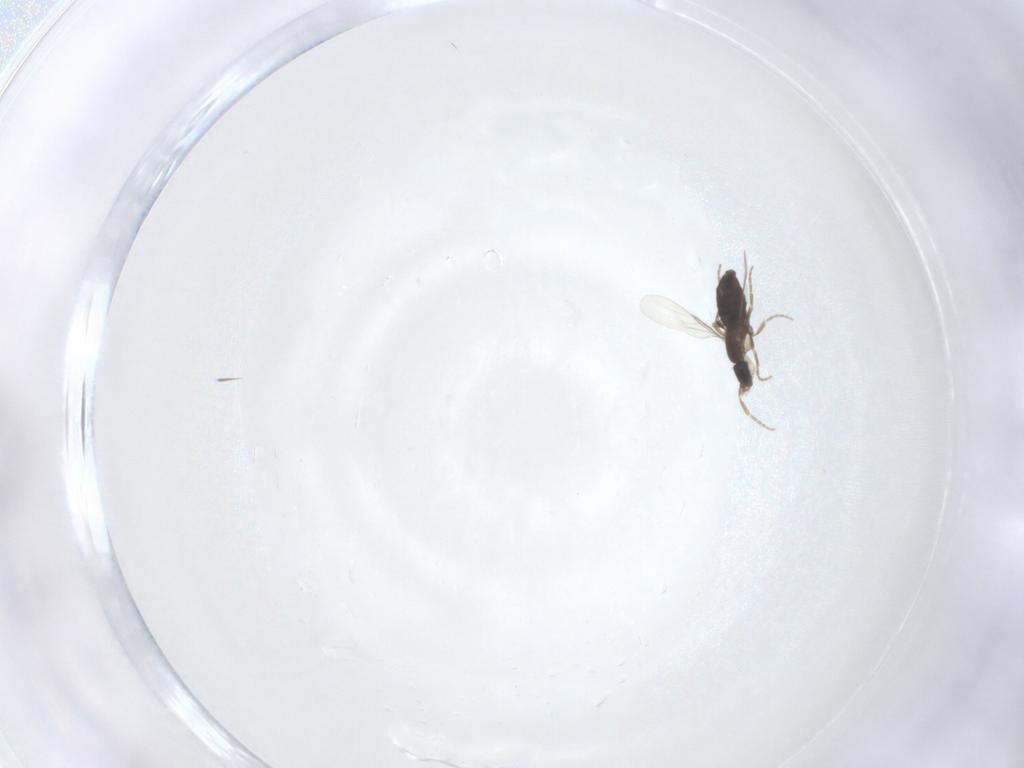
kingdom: Animalia
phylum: Arthropoda
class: Insecta
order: Diptera
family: Phoridae
